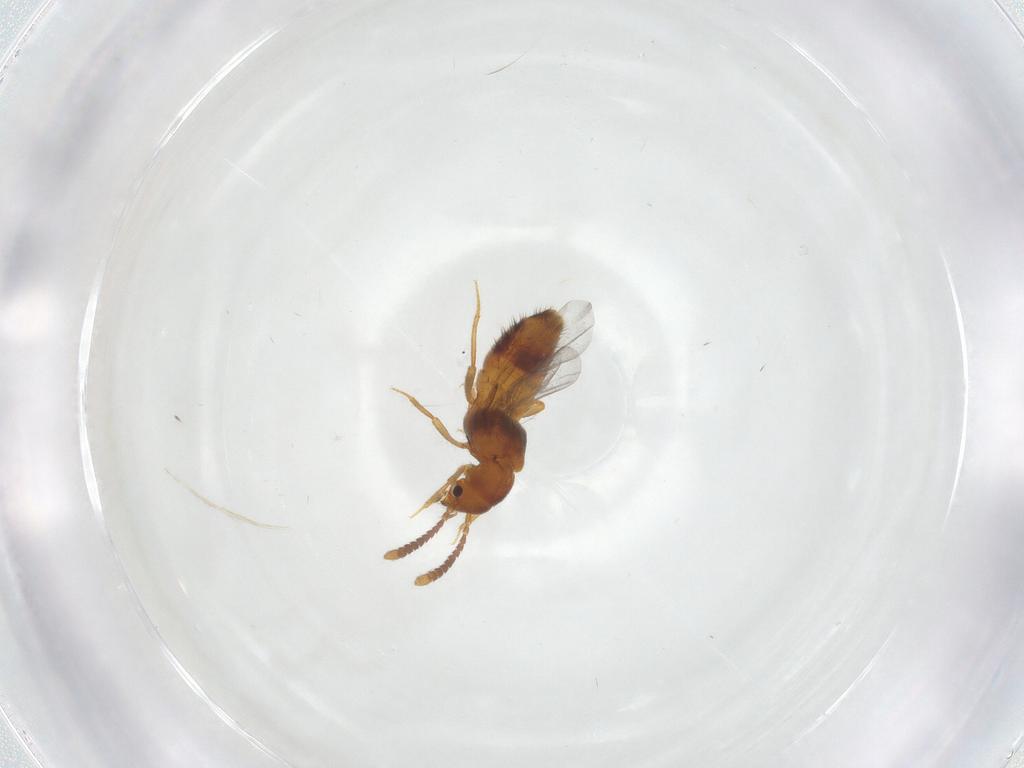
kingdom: Animalia
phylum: Arthropoda
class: Insecta
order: Coleoptera
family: Staphylinidae
